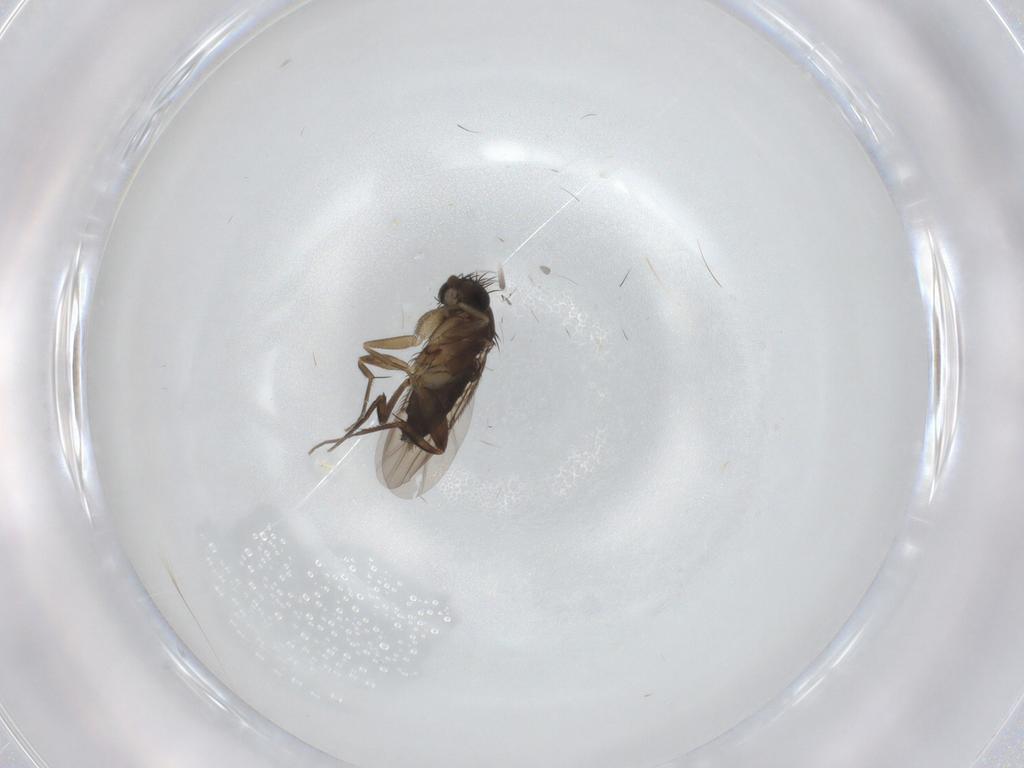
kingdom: Animalia
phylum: Arthropoda
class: Insecta
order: Diptera
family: Phoridae
